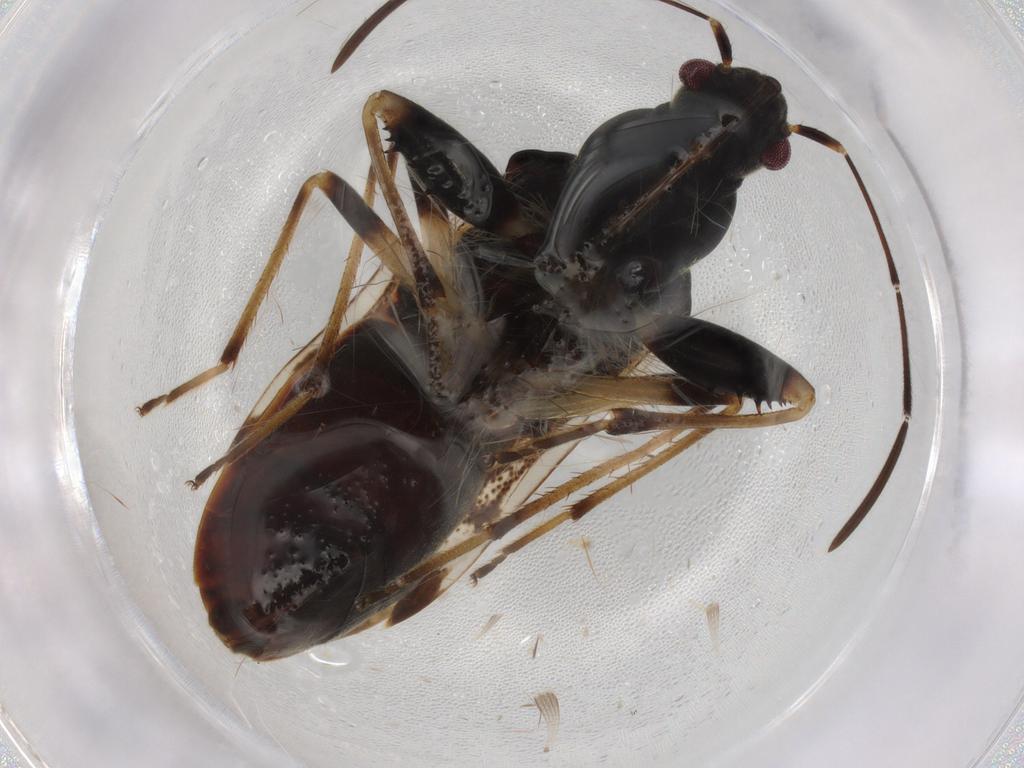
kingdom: Animalia
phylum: Arthropoda
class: Insecta
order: Hemiptera
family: Rhyparochromidae
